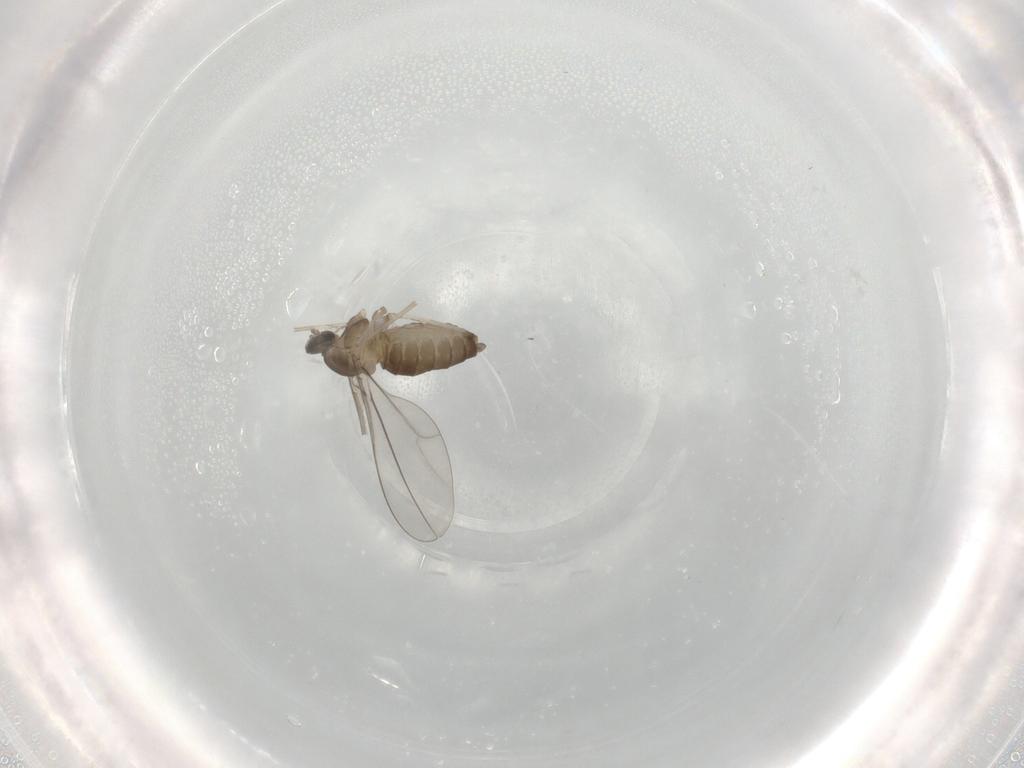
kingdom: Animalia
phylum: Arthropoda
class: Insecta
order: Diptera
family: Cecidomyiidae
